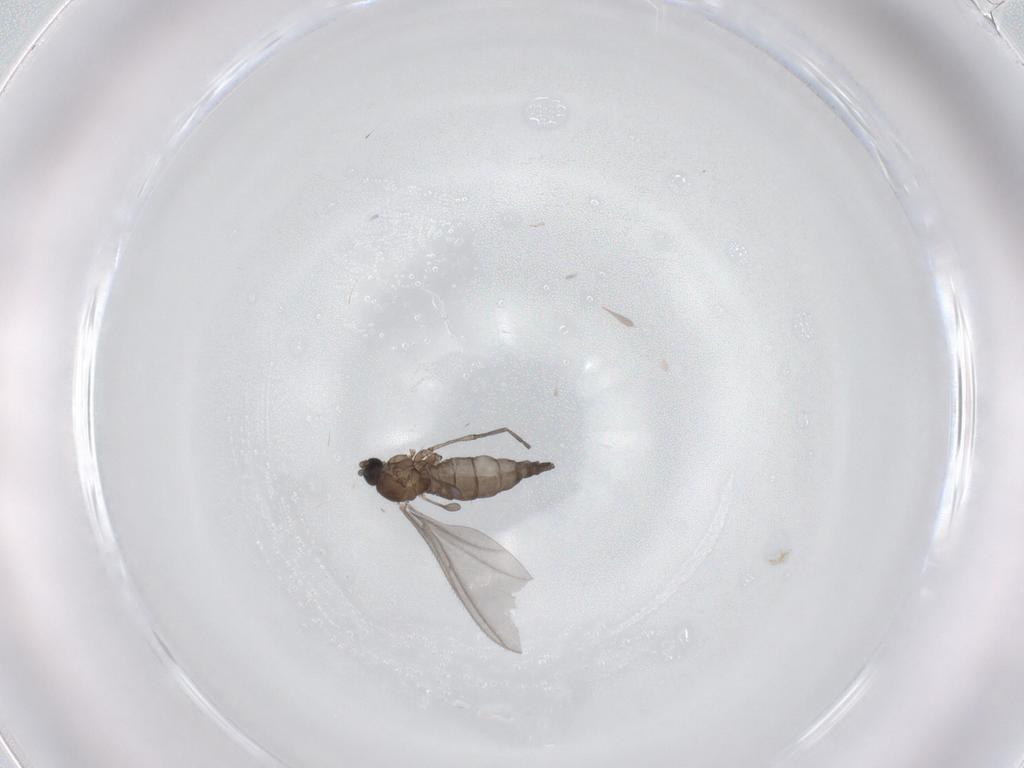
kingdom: Animalia
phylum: Arthropoda
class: Insecta
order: Diptera
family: Sciaridae
